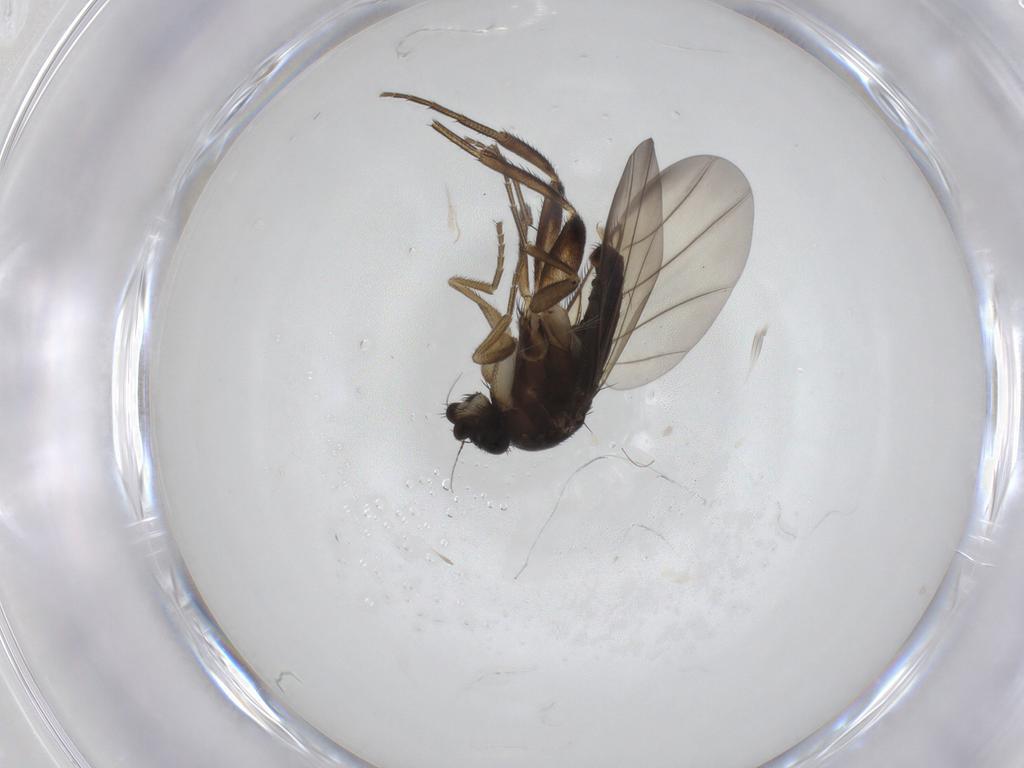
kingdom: Animalia
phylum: Arthropoda
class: Insecta
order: Diptera
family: Phoridae
